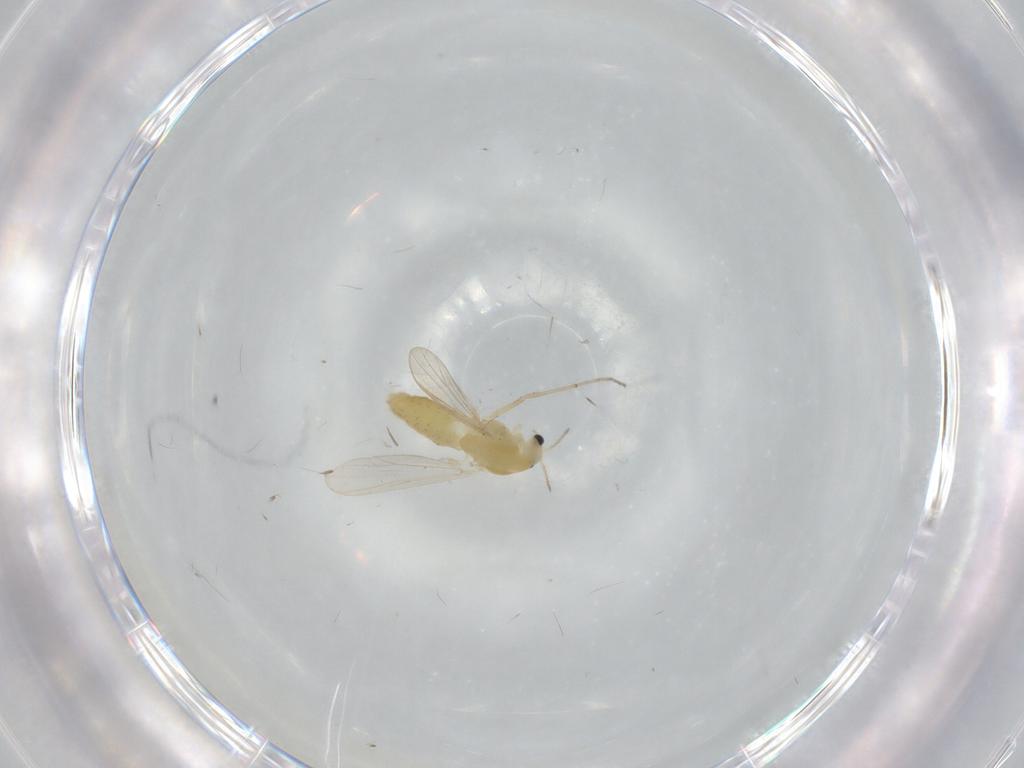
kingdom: Animalia
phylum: Arthropoda
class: Insecta
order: Diptera
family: Chironomidae
